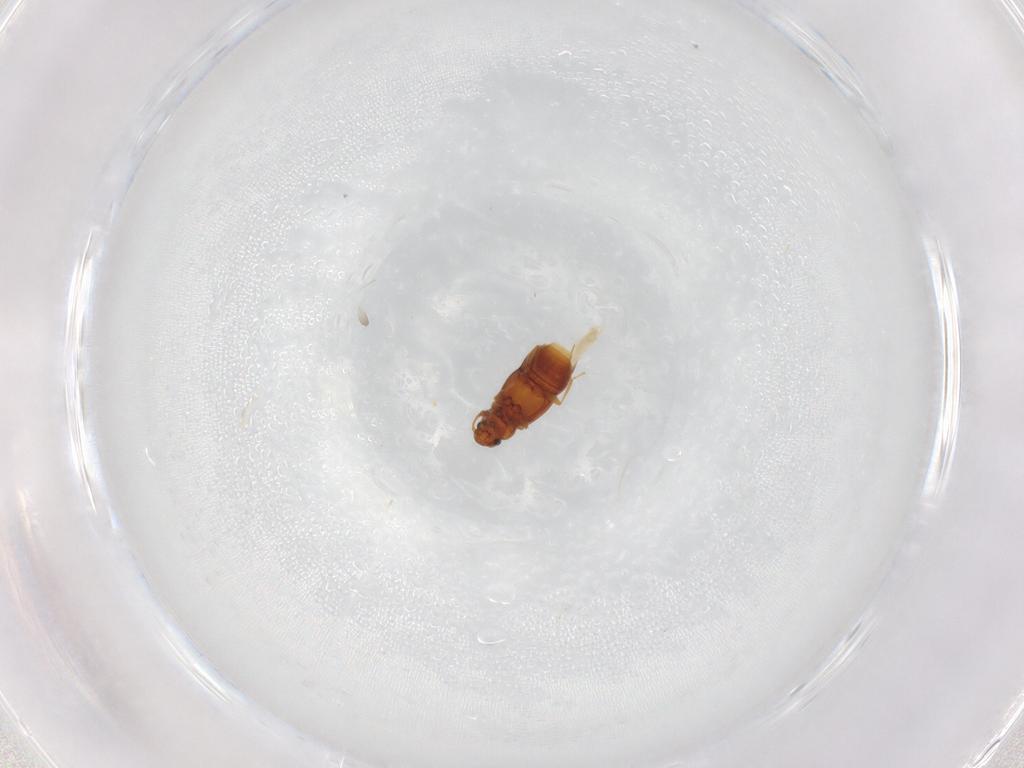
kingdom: Animalia
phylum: Arthropoda
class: Insecta
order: Coleoptera
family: Staphylinidae
